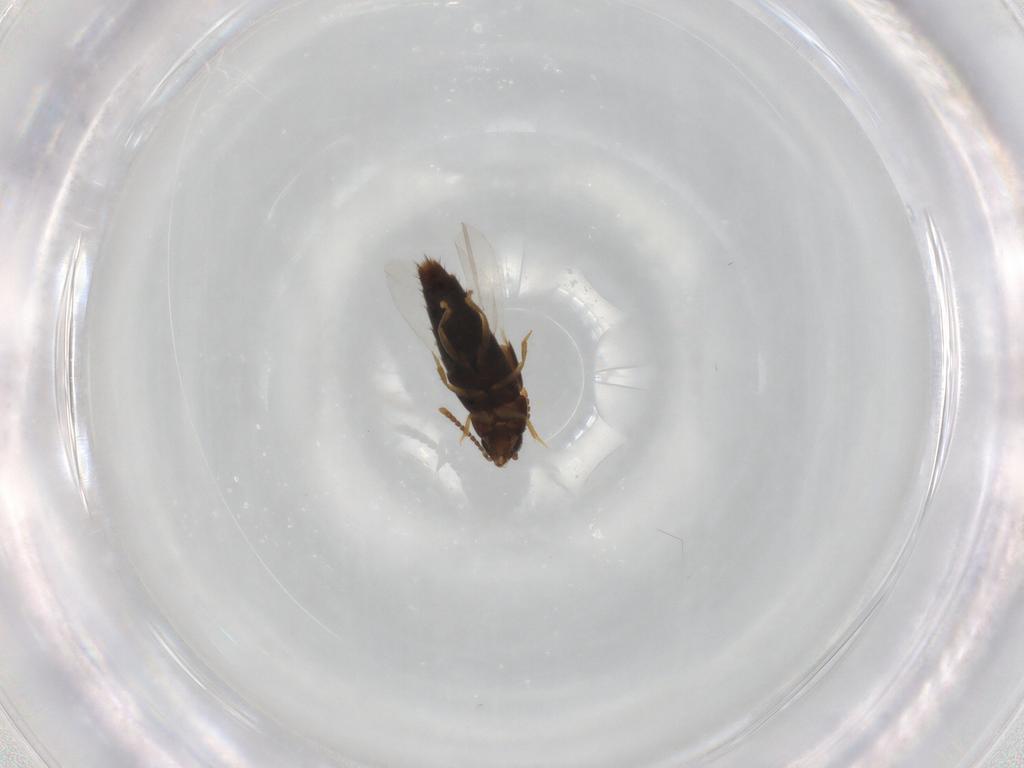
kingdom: Animalia
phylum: Arthropoda
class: Insecta
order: Coleoptera
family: Staphylinidae
